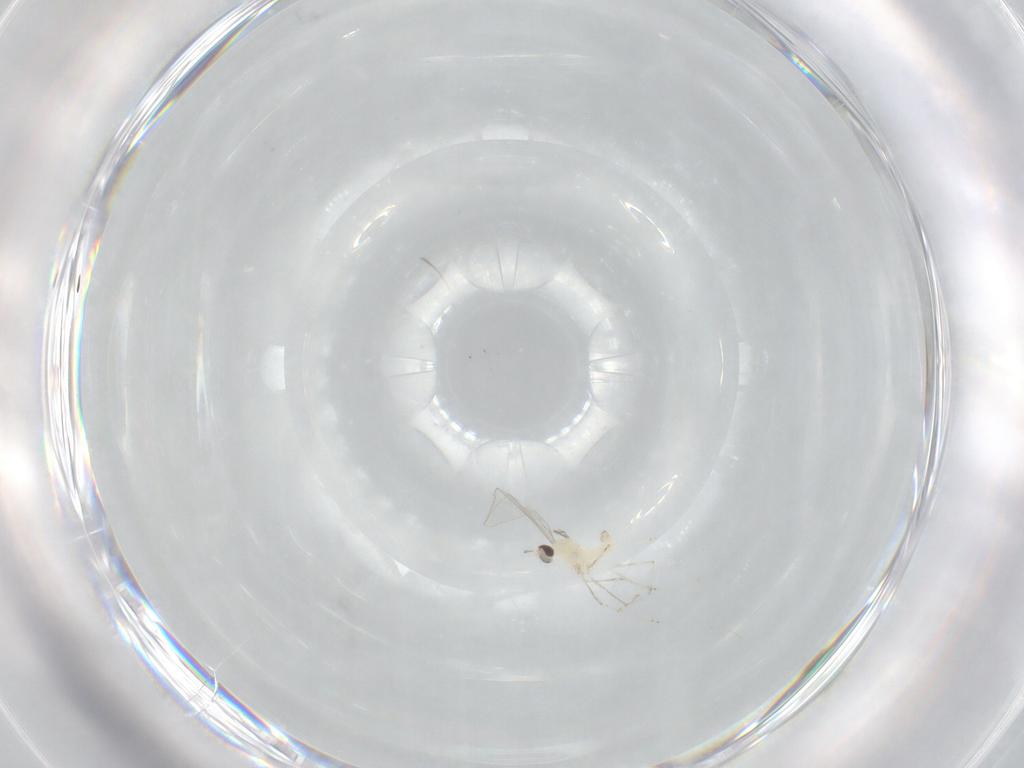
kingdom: Animalia
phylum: Arthropoda
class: Insecta
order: Diptera
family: Cecidomyiidae
